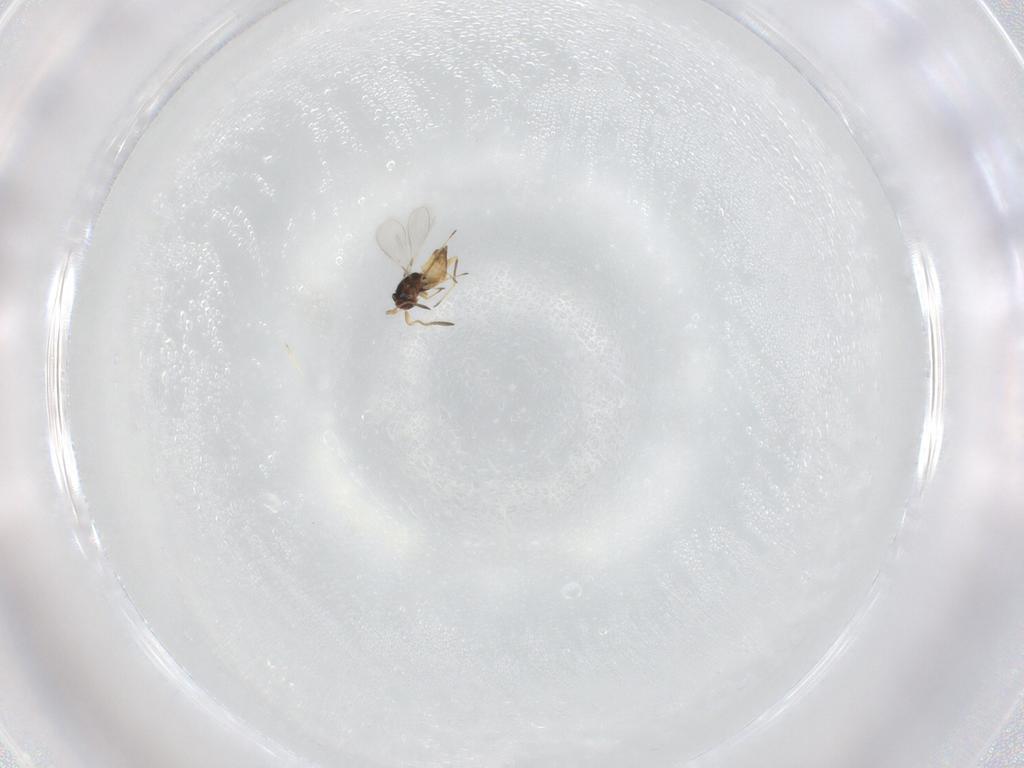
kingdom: Animalia
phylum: Arthropoda
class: Insecta
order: Hymenoptera
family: Mymaridae
